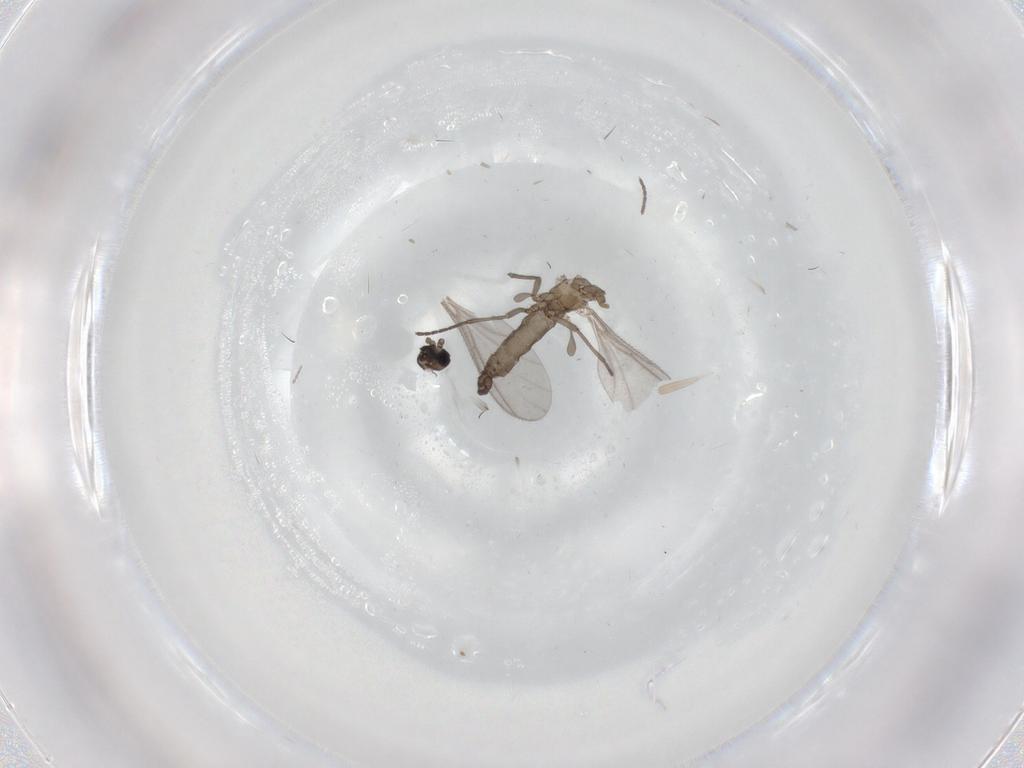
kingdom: Animalia
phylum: Arthropoda
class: Insecta
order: Diptera
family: Sciaridae
